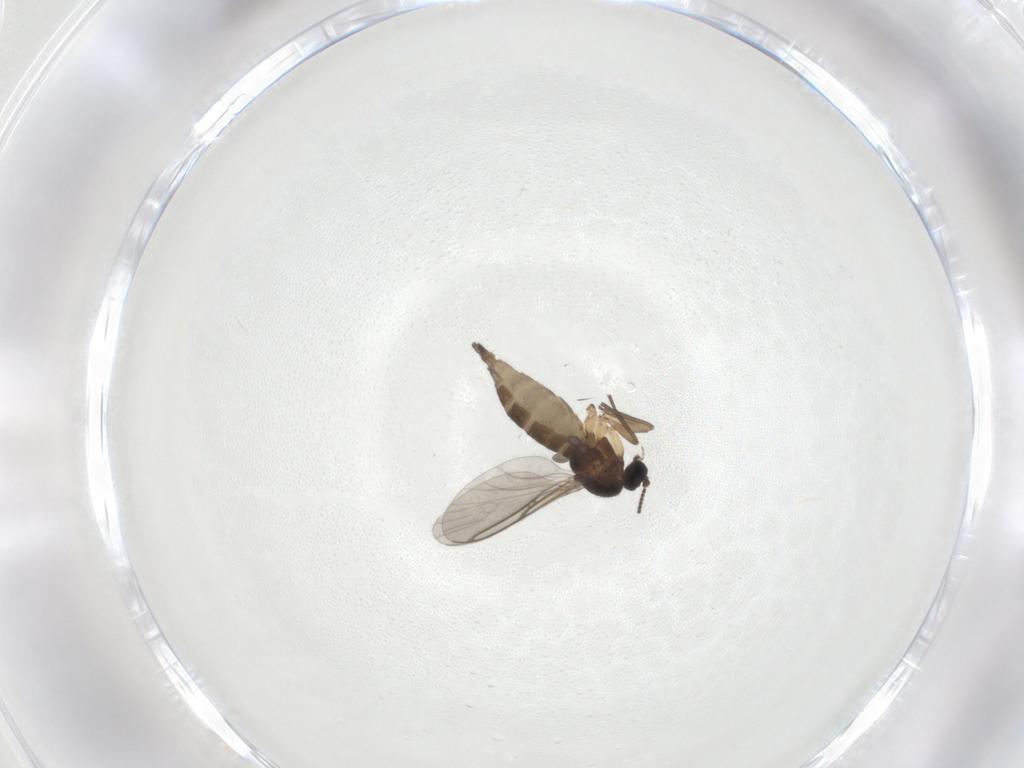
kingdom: Animalia
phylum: Arthropoda
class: Insecta
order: Diptera
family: Sciaridae
